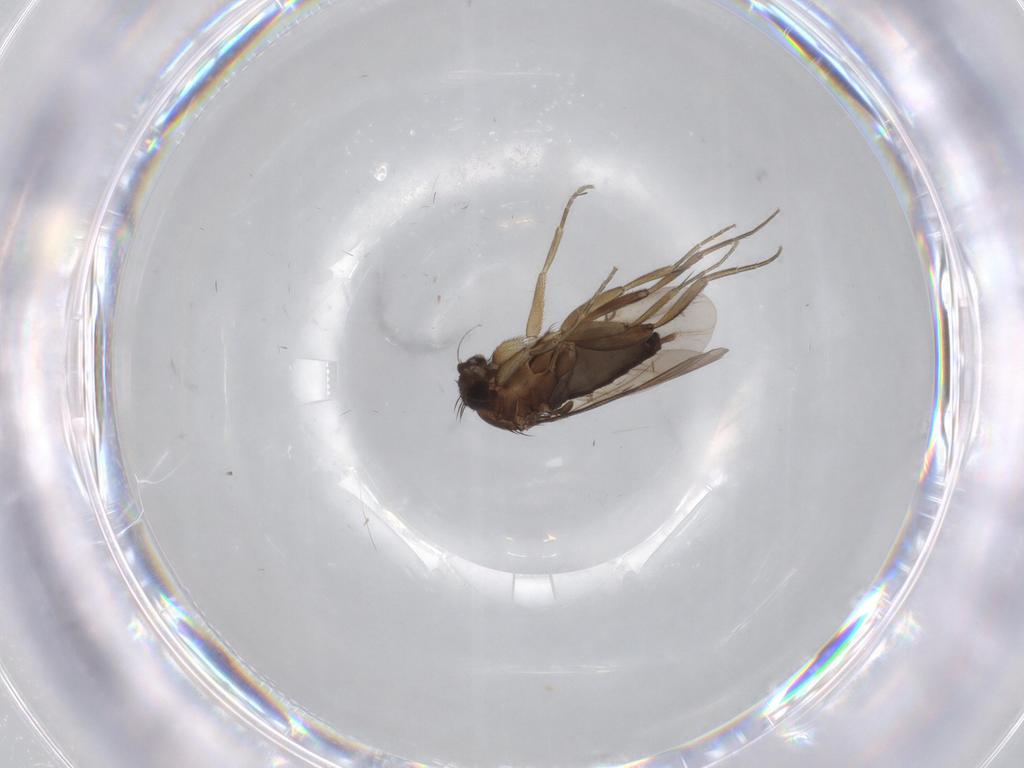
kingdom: Animalia
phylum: Arthropoda
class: Insecta
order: Diptera
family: Phoridae
